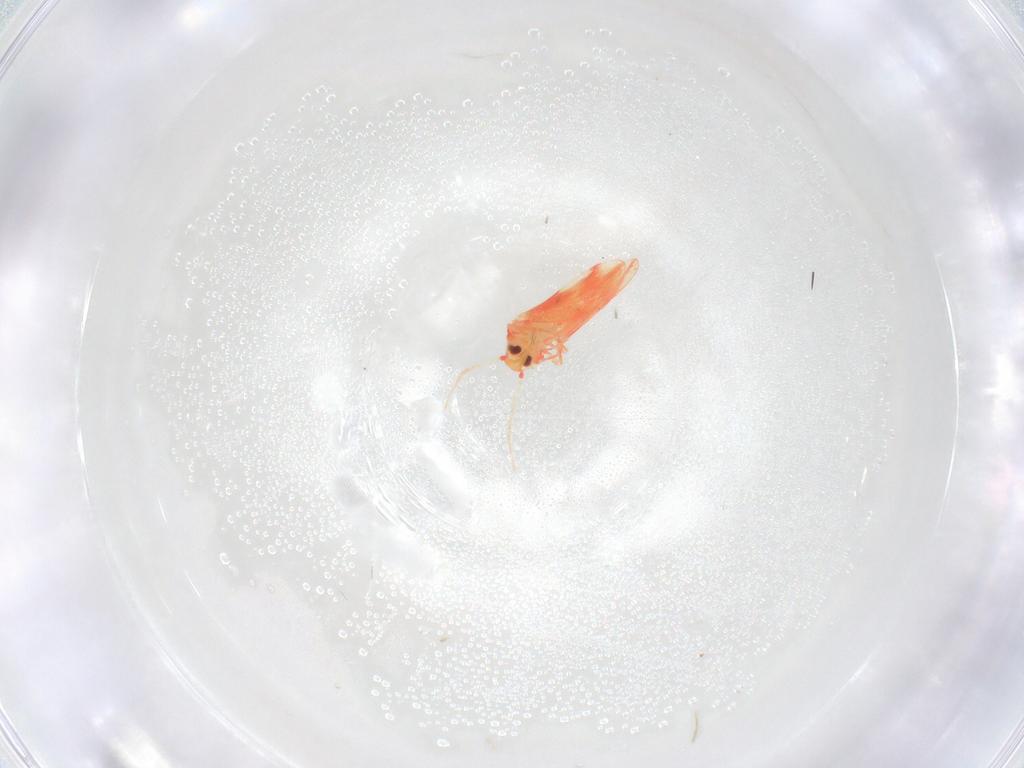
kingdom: Animalia
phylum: Arthropoda
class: Insecta
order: Hemiptera
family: Aleyrodidae
